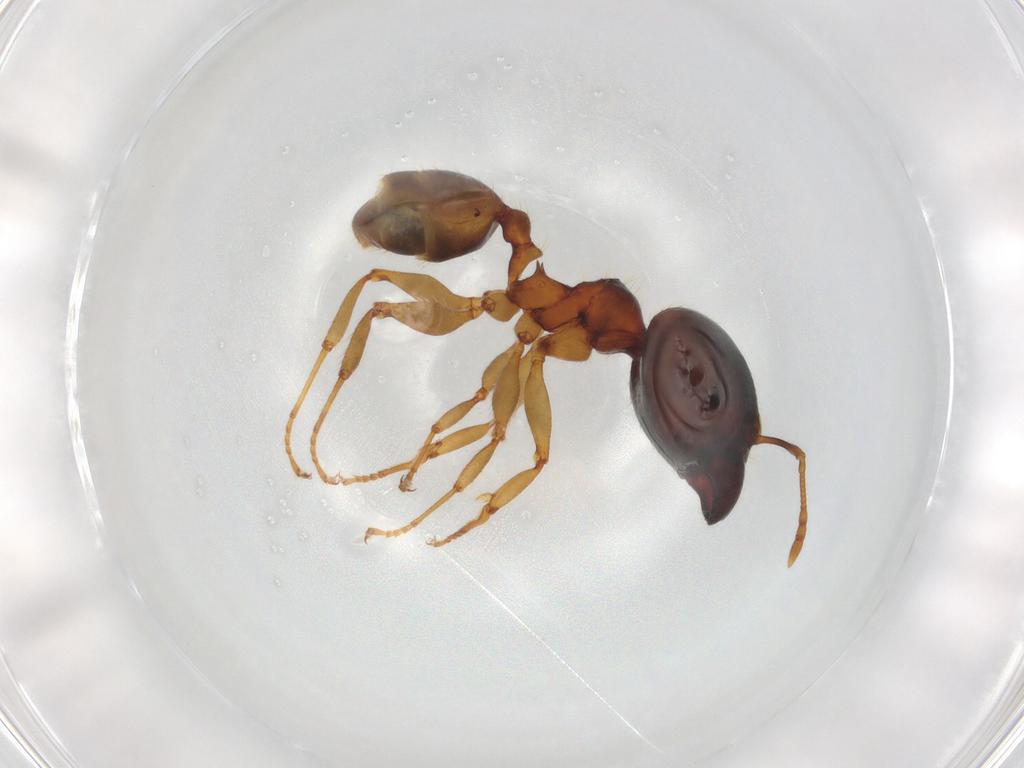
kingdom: Animalia
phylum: Arthropoda
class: Insecta
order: Hymenoptera
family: Formicidae
